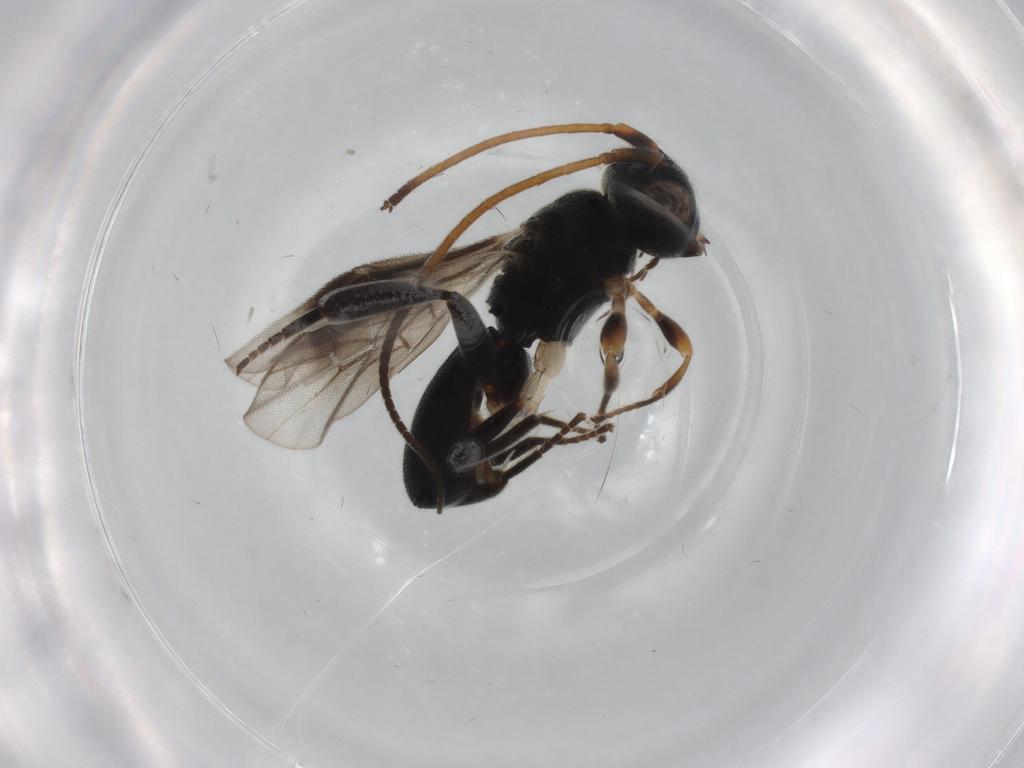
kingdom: Animalia
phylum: Arthropoda
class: Insecta
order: Hymenoptera
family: Braconidae
